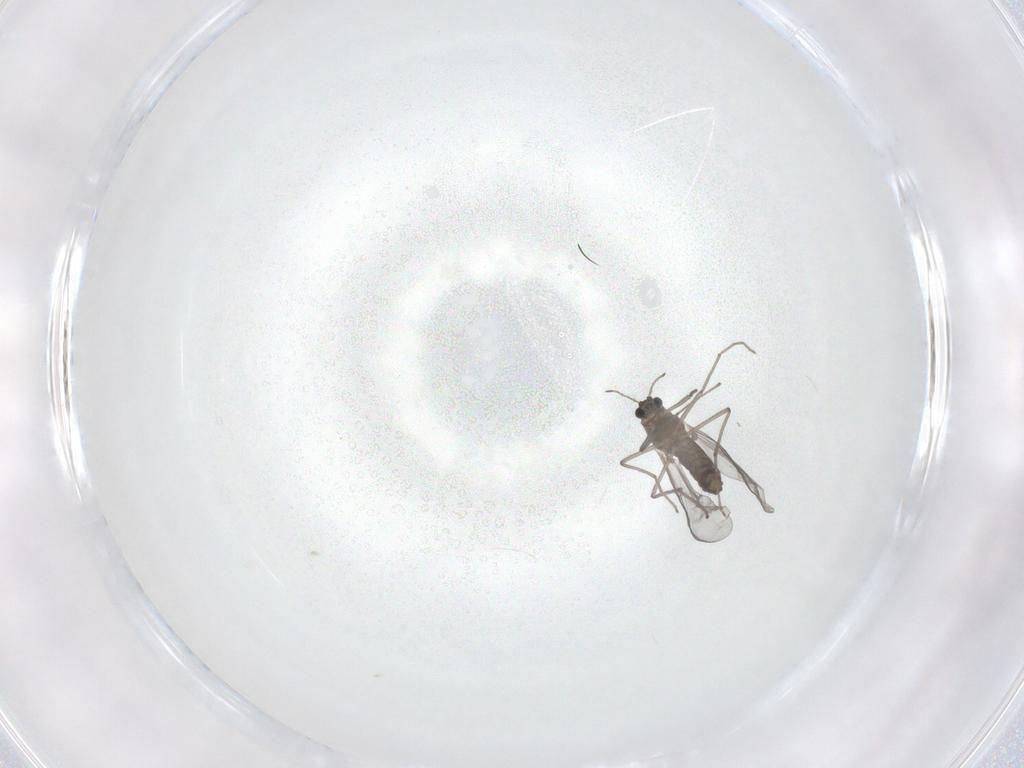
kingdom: Animalia
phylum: Arthropoda
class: Insecta
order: Diptera
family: Chironomidae
